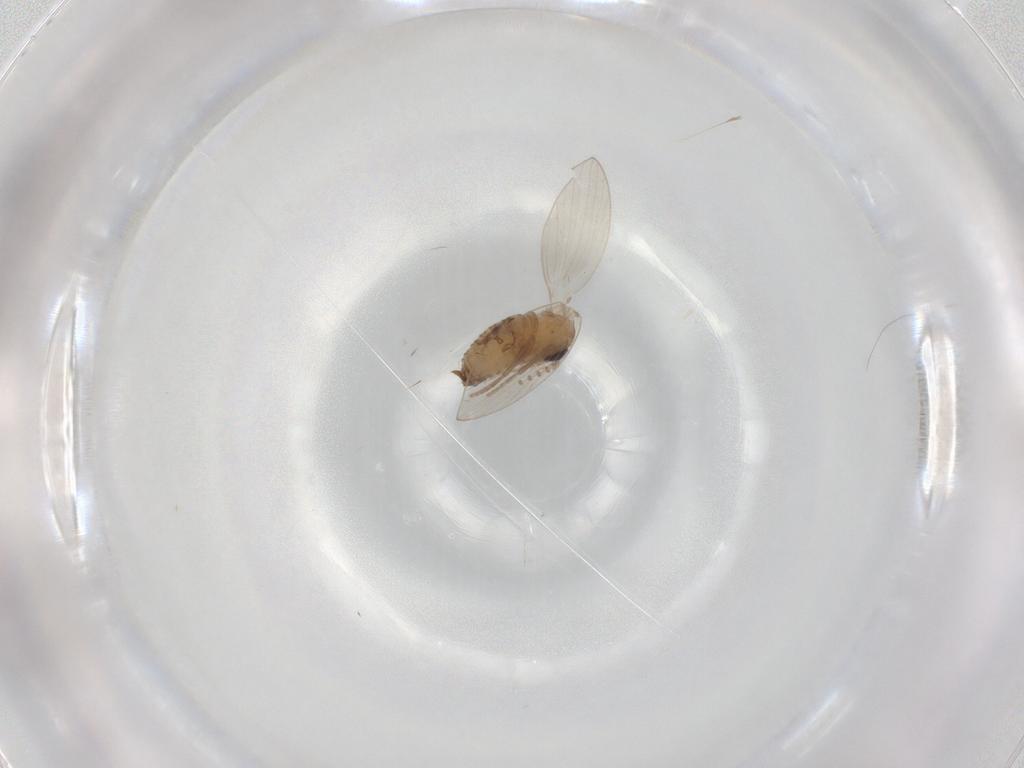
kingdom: Animalia
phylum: Arthropoda
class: Insecta
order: Diptera
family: Psychodidae
